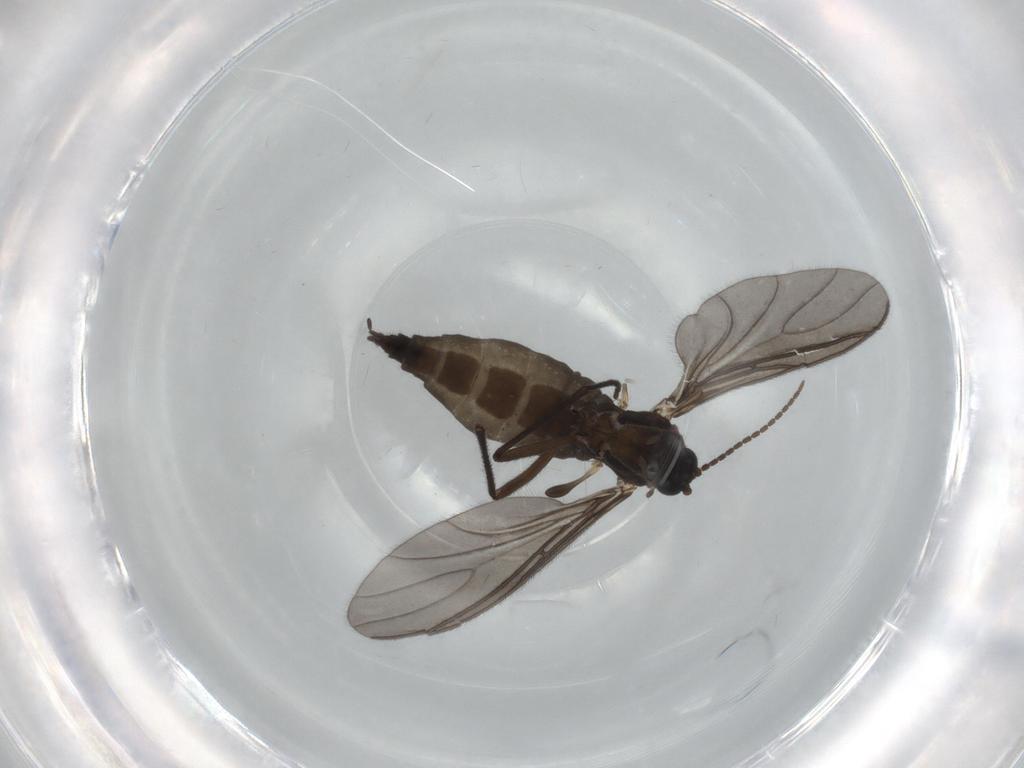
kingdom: Animalia
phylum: Arthropoda
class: Insecta
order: Diptera
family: Sciaridae
